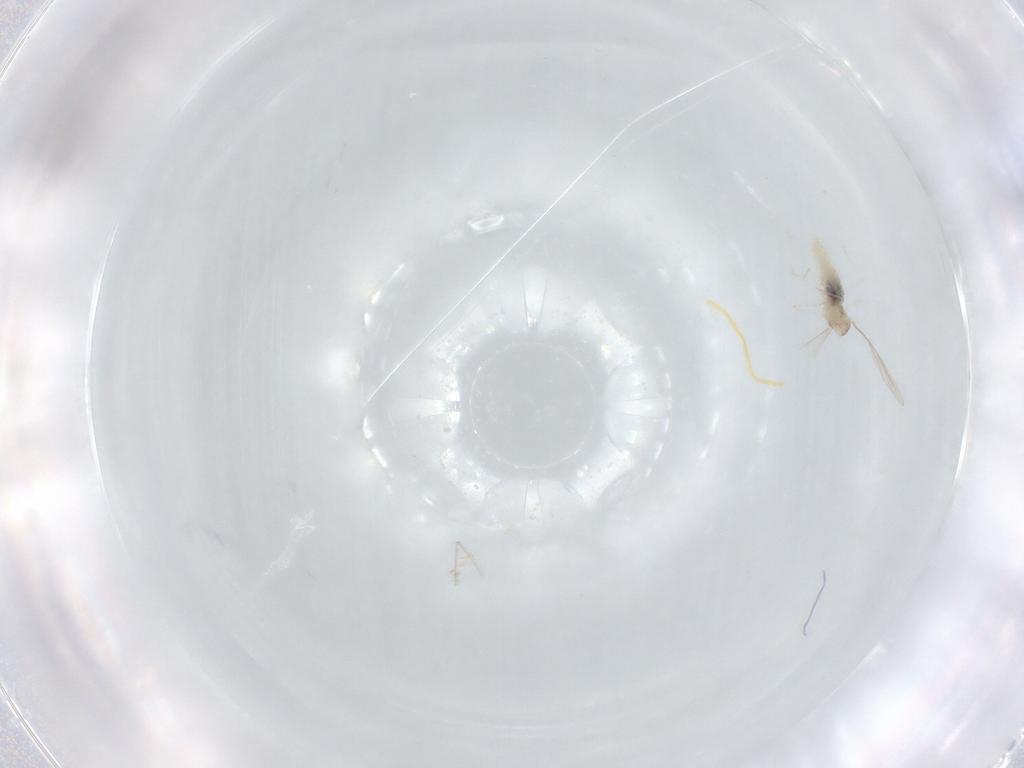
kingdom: Animalia
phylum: Arthropoda
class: Insecta
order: Diptera
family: Cecidomyiidae
